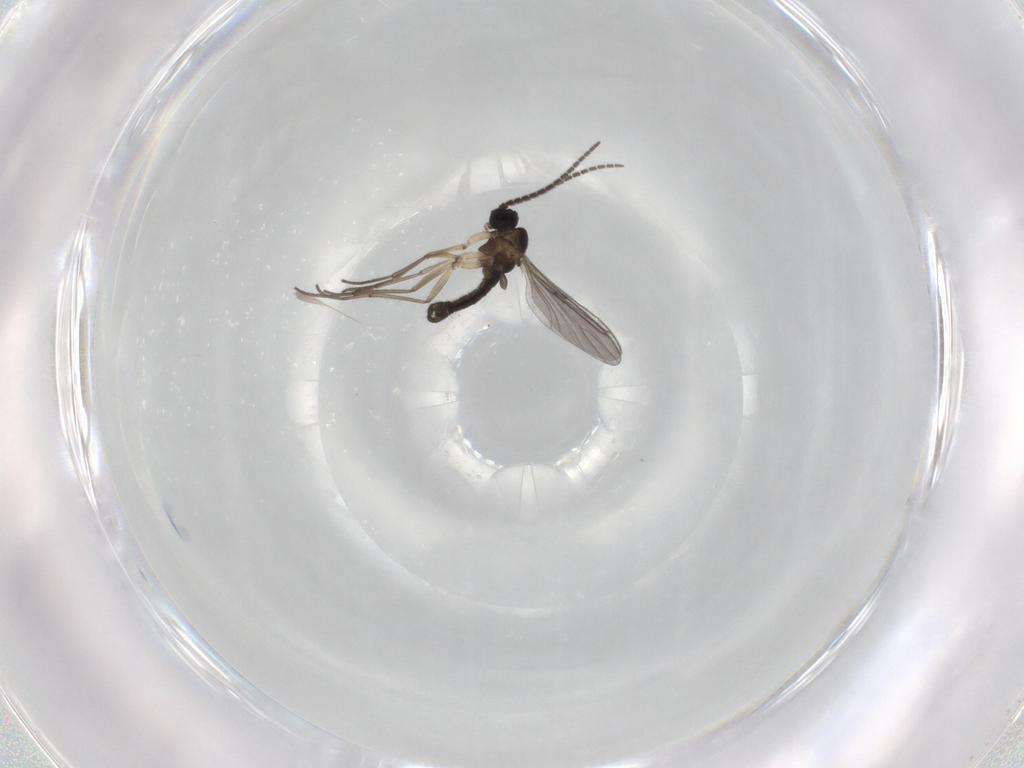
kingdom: Animalia
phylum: Arthropoda
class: Insecta
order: Diptera
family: Sciaridae
